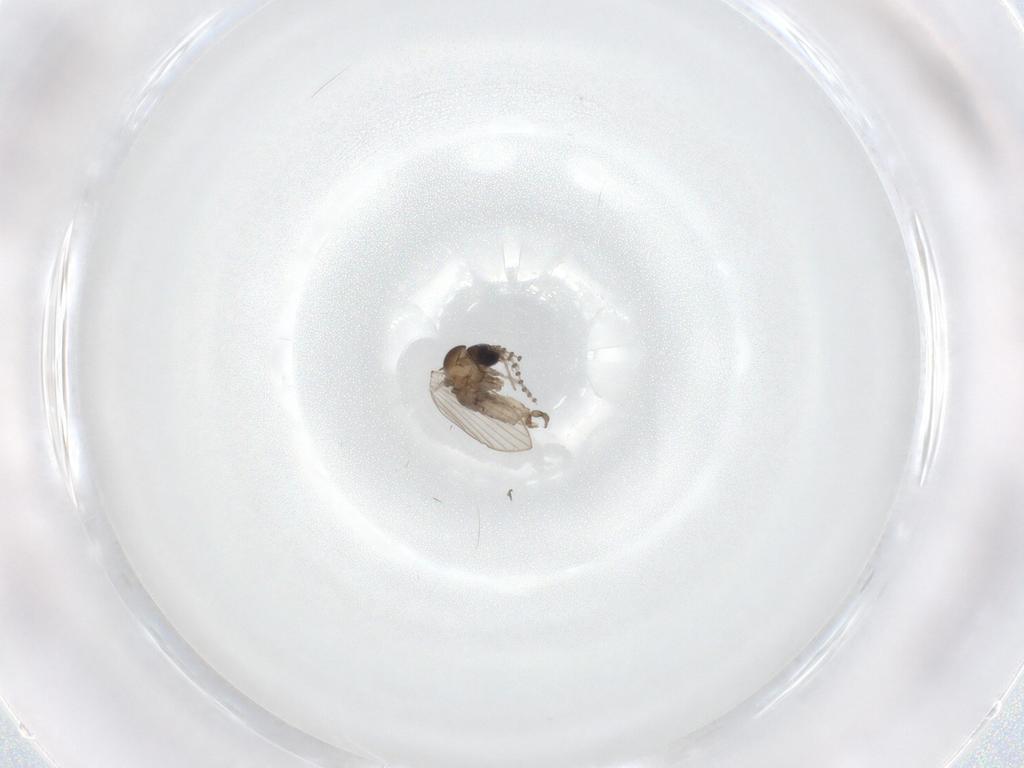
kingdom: Animalia
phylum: Arthropoda
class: Insecta
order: Diptera
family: Psychodidae
